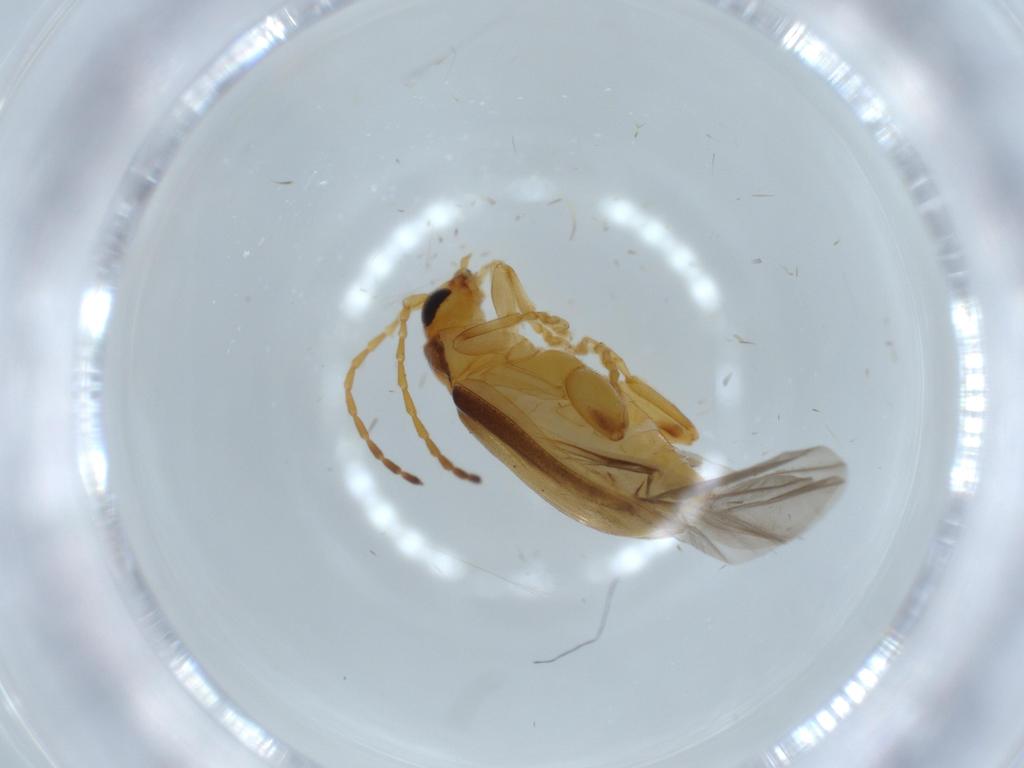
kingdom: Animalia
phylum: Arthropoda
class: Insecta
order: Coleoptera
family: Chrysomelidae
